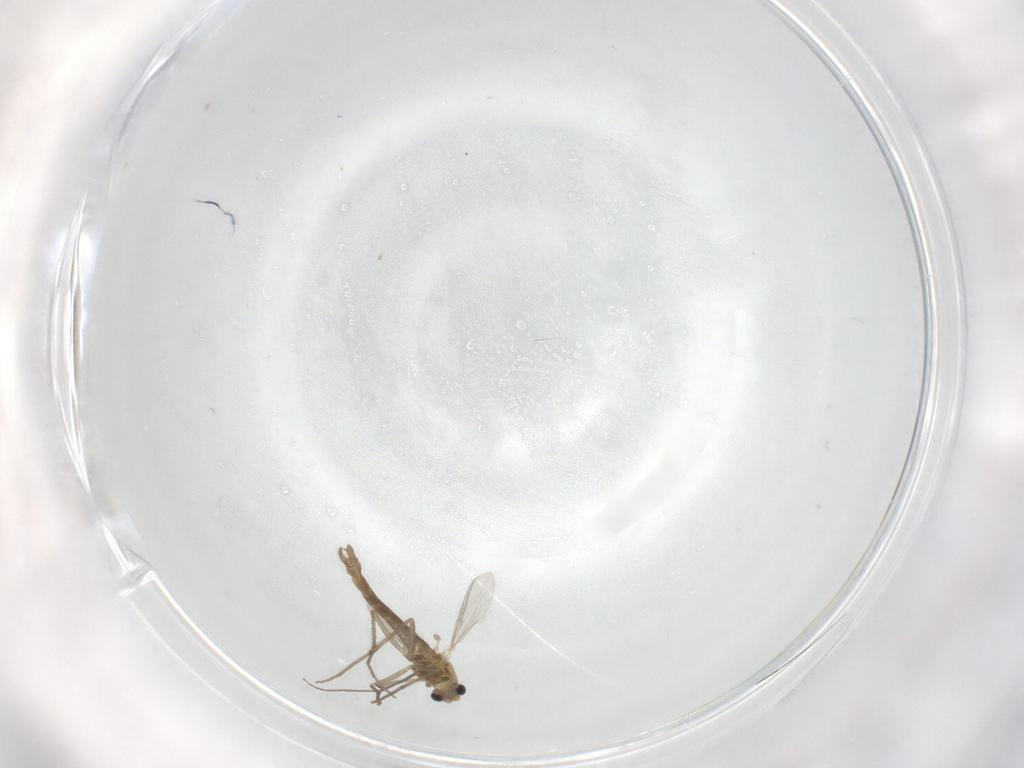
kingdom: Animalia
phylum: Arthropoda
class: Insecta
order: Diptera
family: Chironomidae
